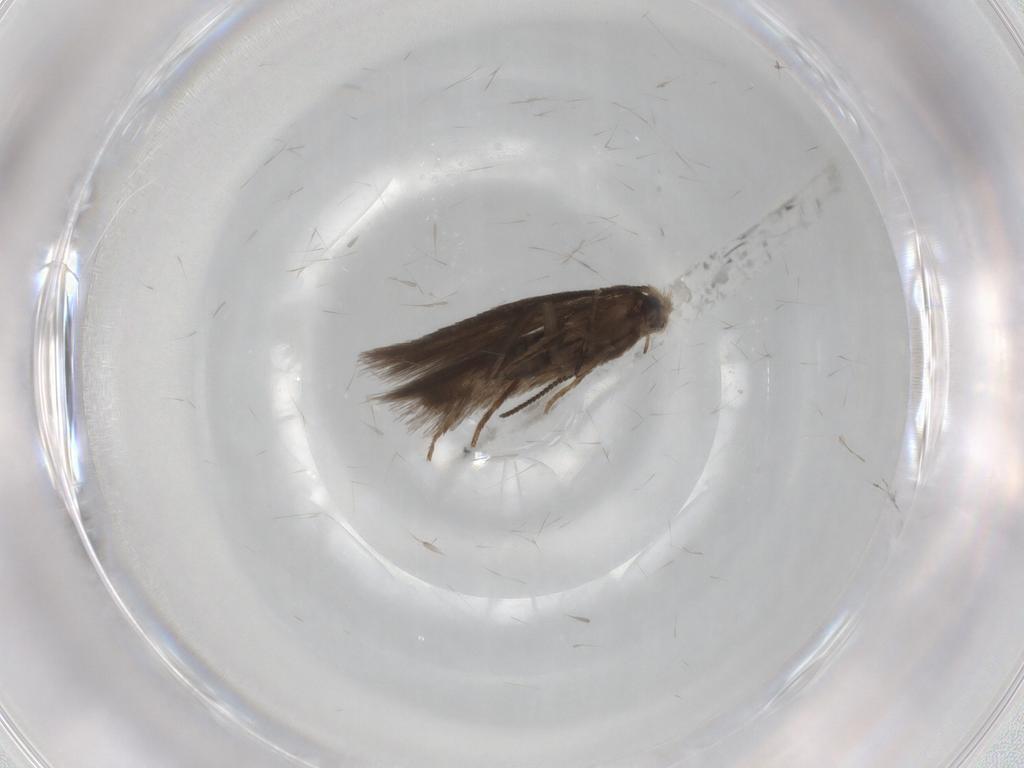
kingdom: Animalia
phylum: Arthropoda
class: Insecta
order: Lepidoptera
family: Nepticulidae
